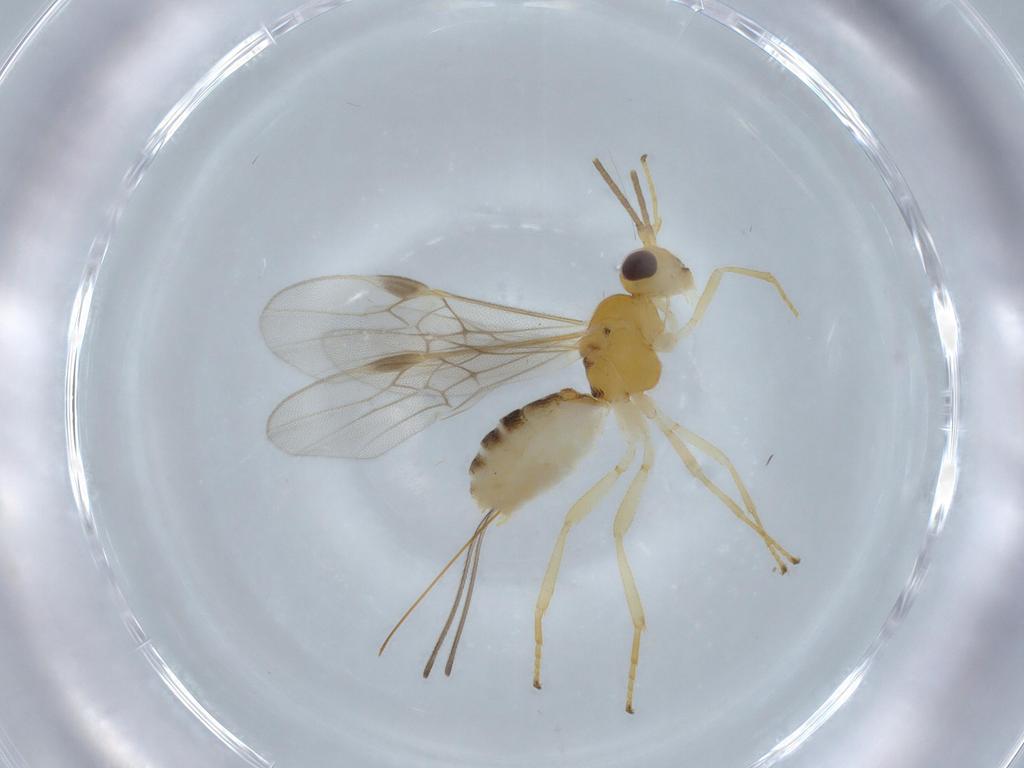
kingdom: Animalia
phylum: Arthropoda
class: Insecta
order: Hymenoptera
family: Braconidae
